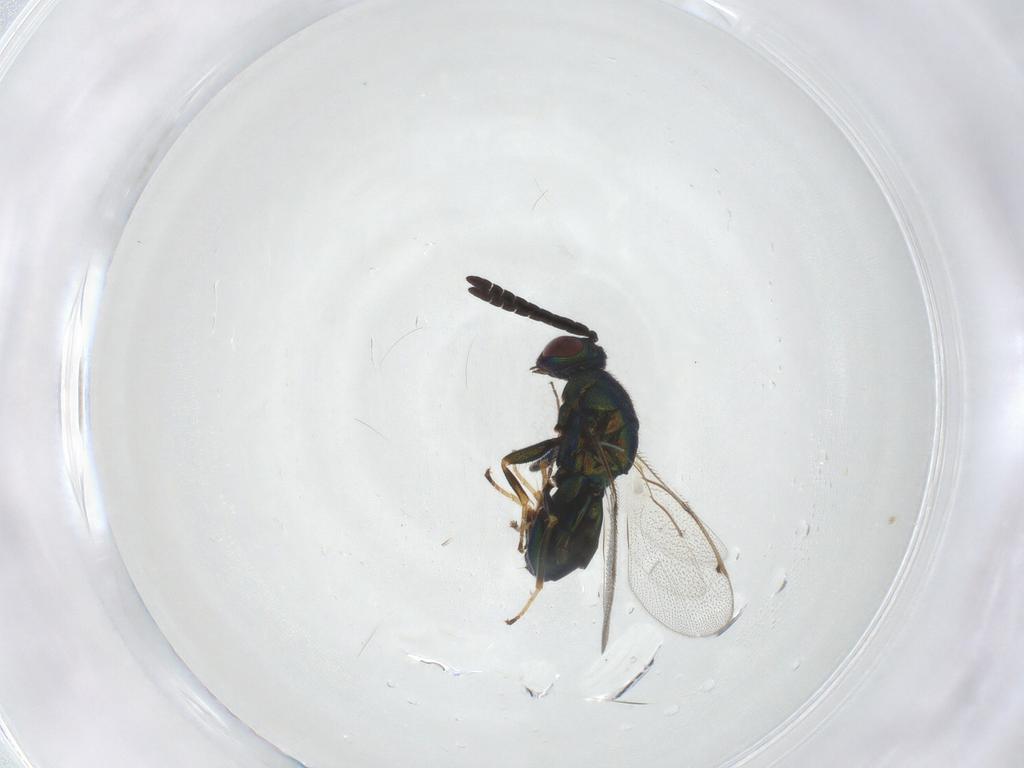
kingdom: Animalia
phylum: Arthropoda
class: Insecta
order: Hymenoptera
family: Torymidae
